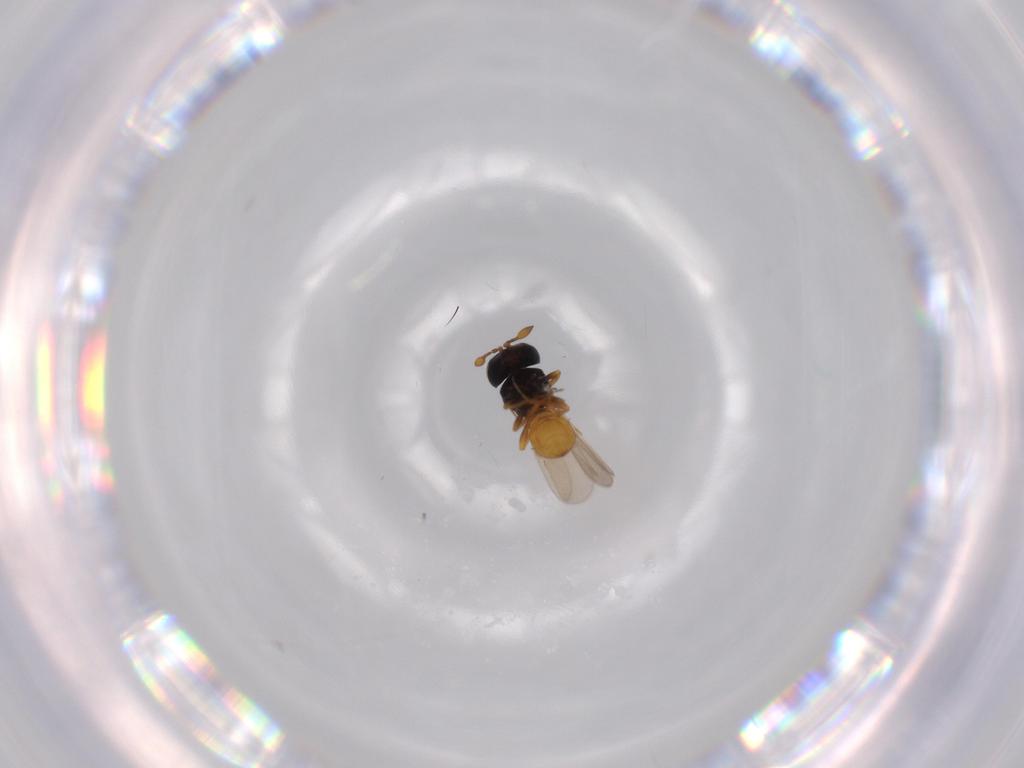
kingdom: Animalia
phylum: Arthropoda
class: Insecta
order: Hymenoptera
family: Scelionidae
